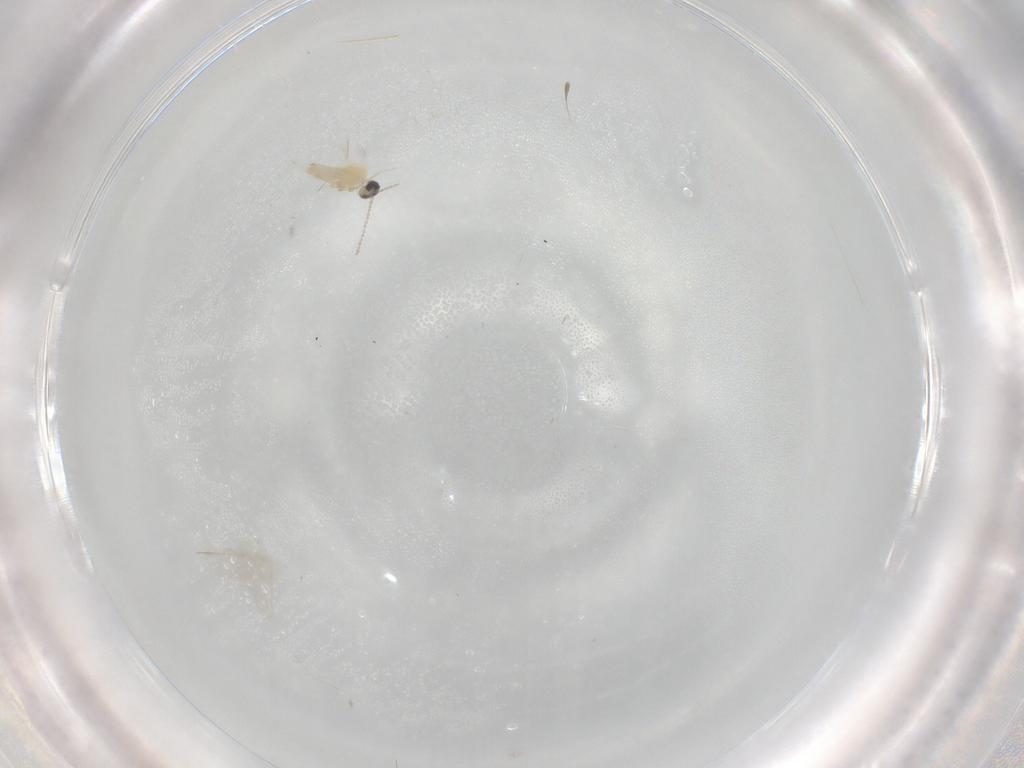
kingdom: Animalia
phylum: Arthropoda
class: Insecta
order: Diptera
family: Cecidomyiidae
